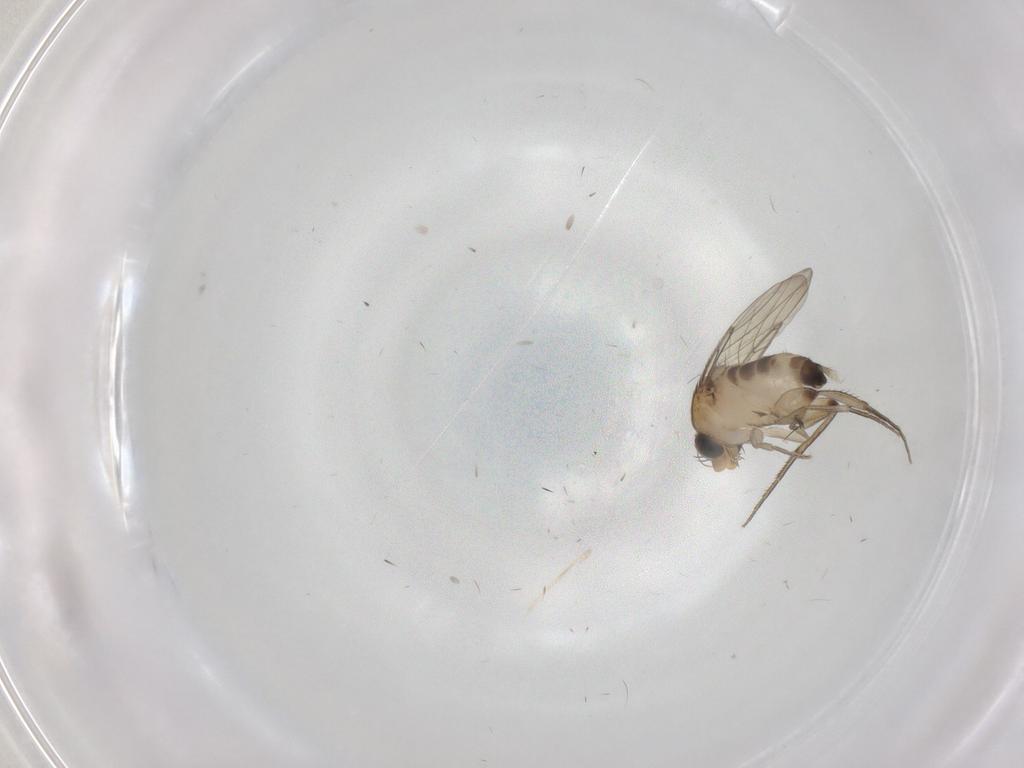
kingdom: Animalia
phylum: Arthropoda
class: Insecta
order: Diptera
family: Phoridae
